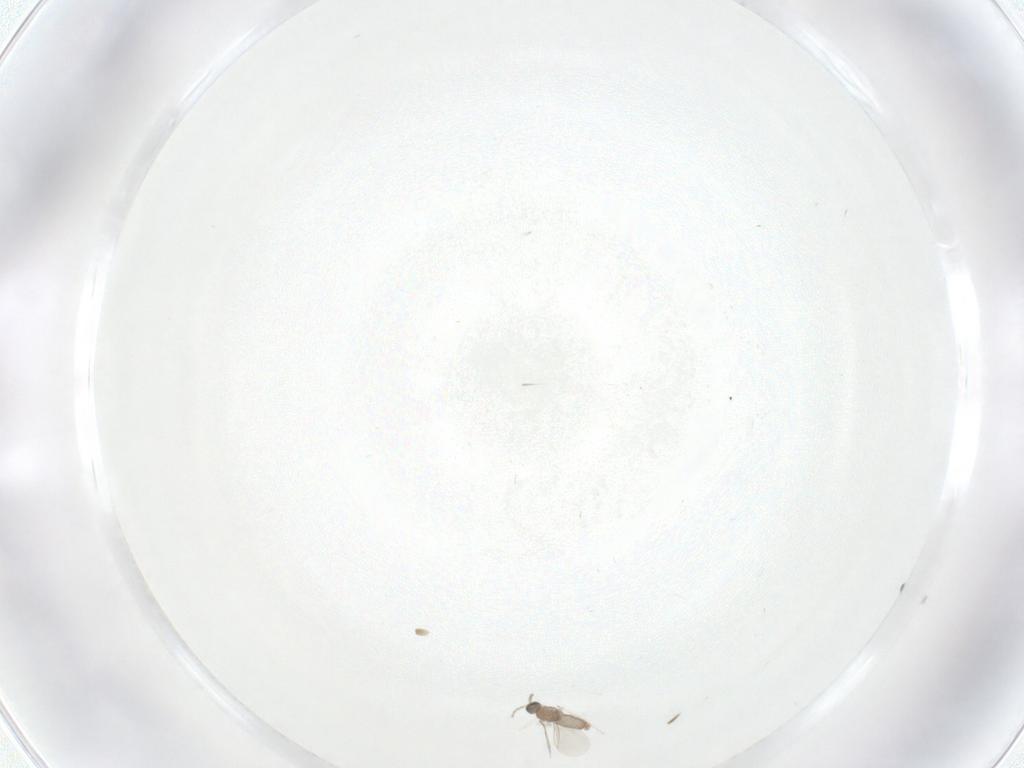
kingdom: Animalia
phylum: Arthropoda
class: Insecta
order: Diptera
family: Cecidomyiidae
